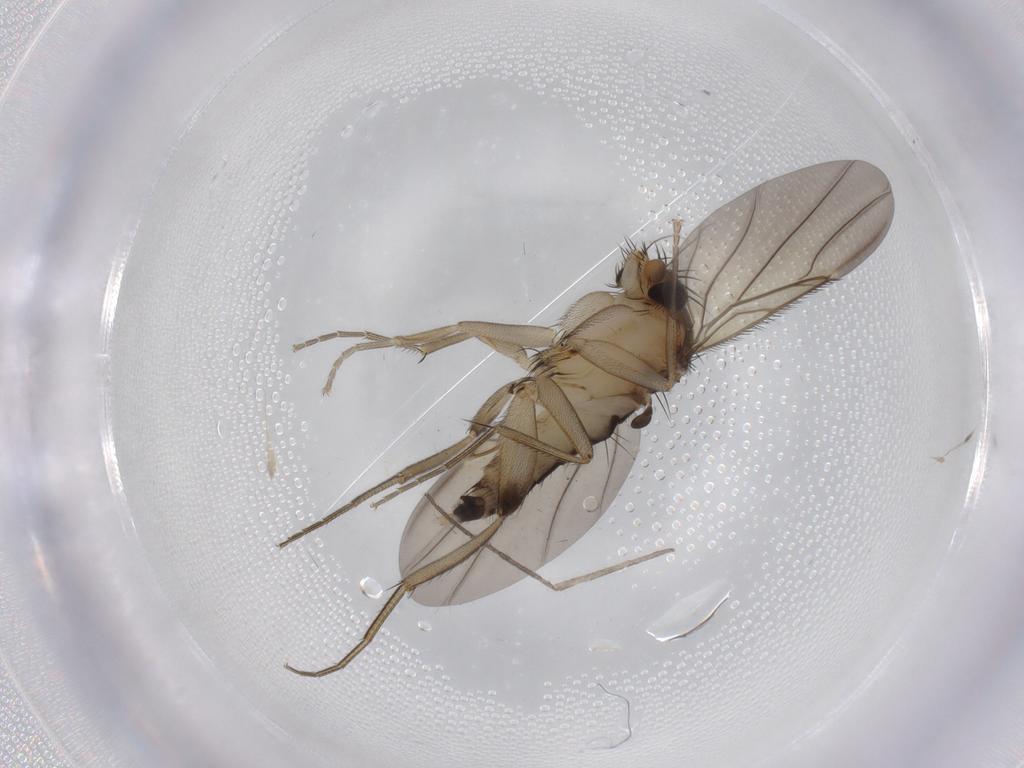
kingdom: Animalia
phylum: Arthropoda
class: Insecta
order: Diptera
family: Phoridae
